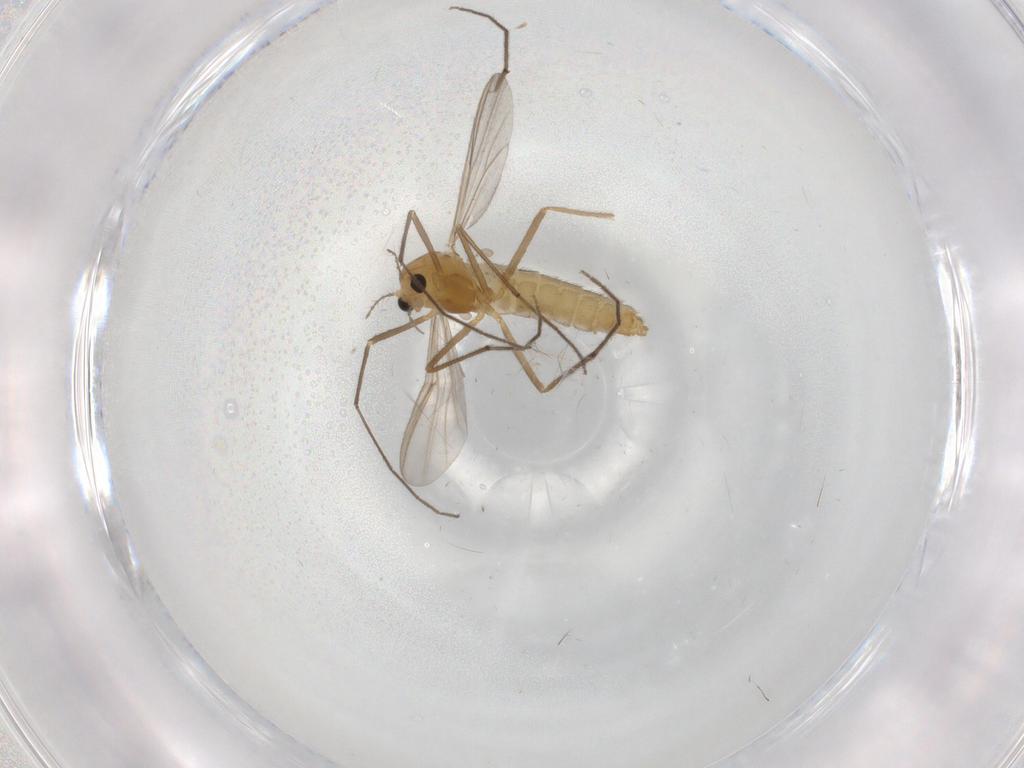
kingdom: Animalia
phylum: Arthropoda
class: Insecta
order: Diptera
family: Chironomidae
